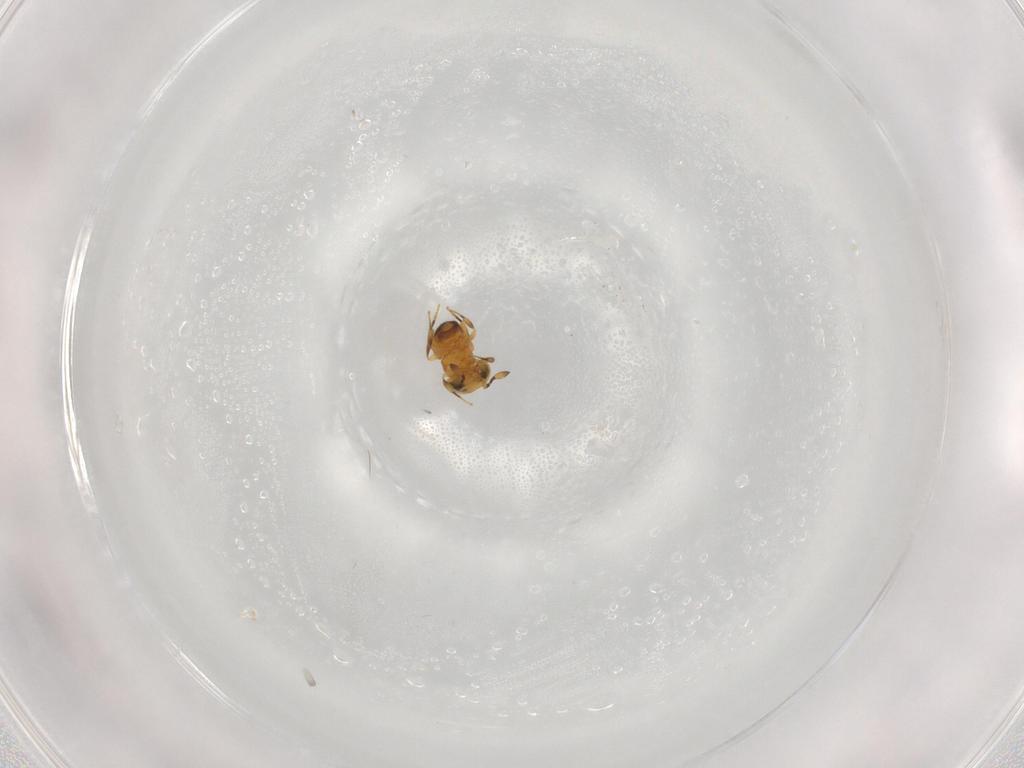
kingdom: Animalia
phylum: Arthropoda
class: Insecta
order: Hymenoptera
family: Scelionidae
